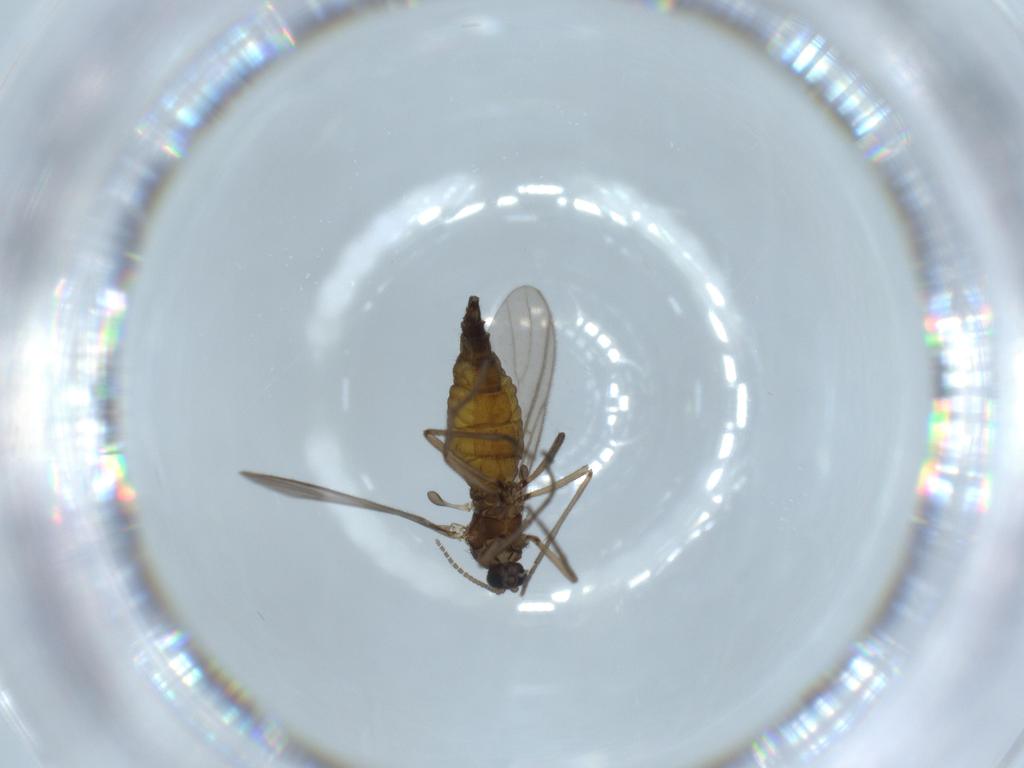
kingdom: Animalia
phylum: Arthropoda
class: Insecta
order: Diptera
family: Sciaridae
